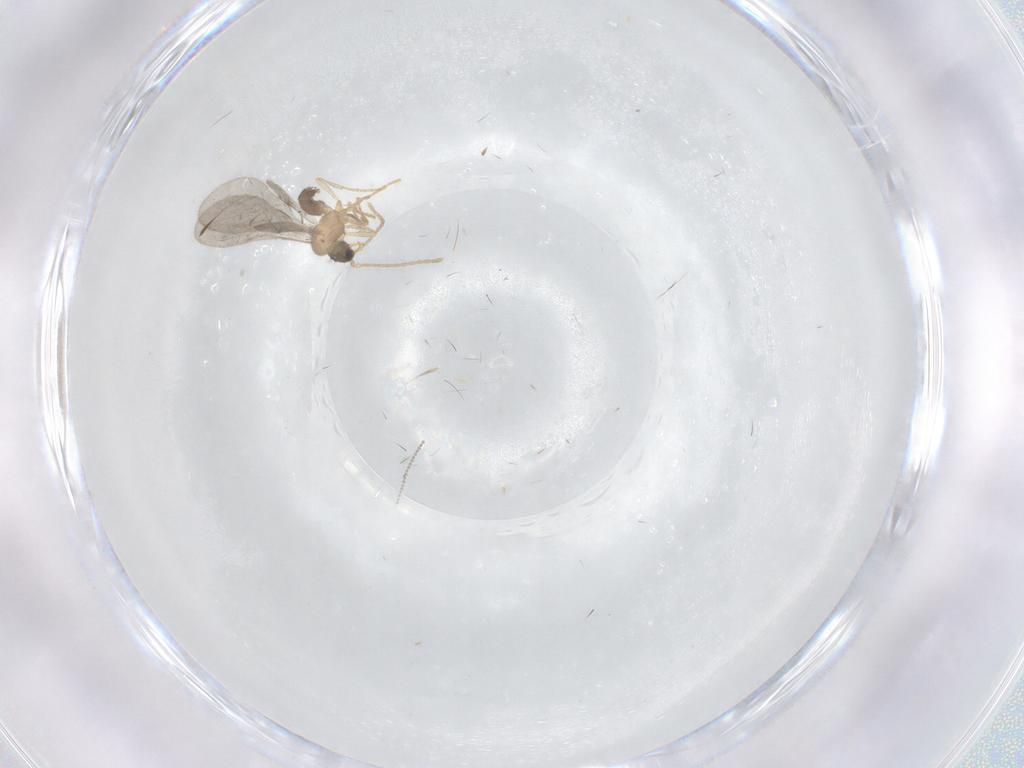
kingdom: Animalia
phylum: Arthropoda
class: Insecta
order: Hymenoptera
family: Formicidae
